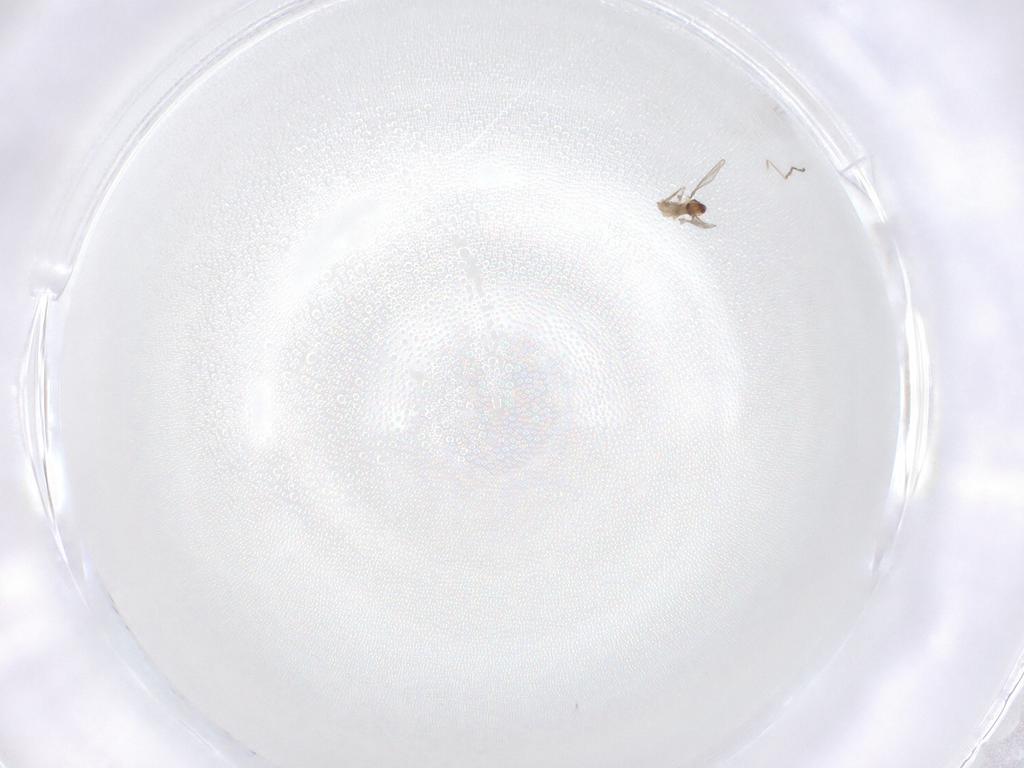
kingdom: Animalia
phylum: Arthropoda
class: Insecta
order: Diptera
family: Cecidomyiidae
